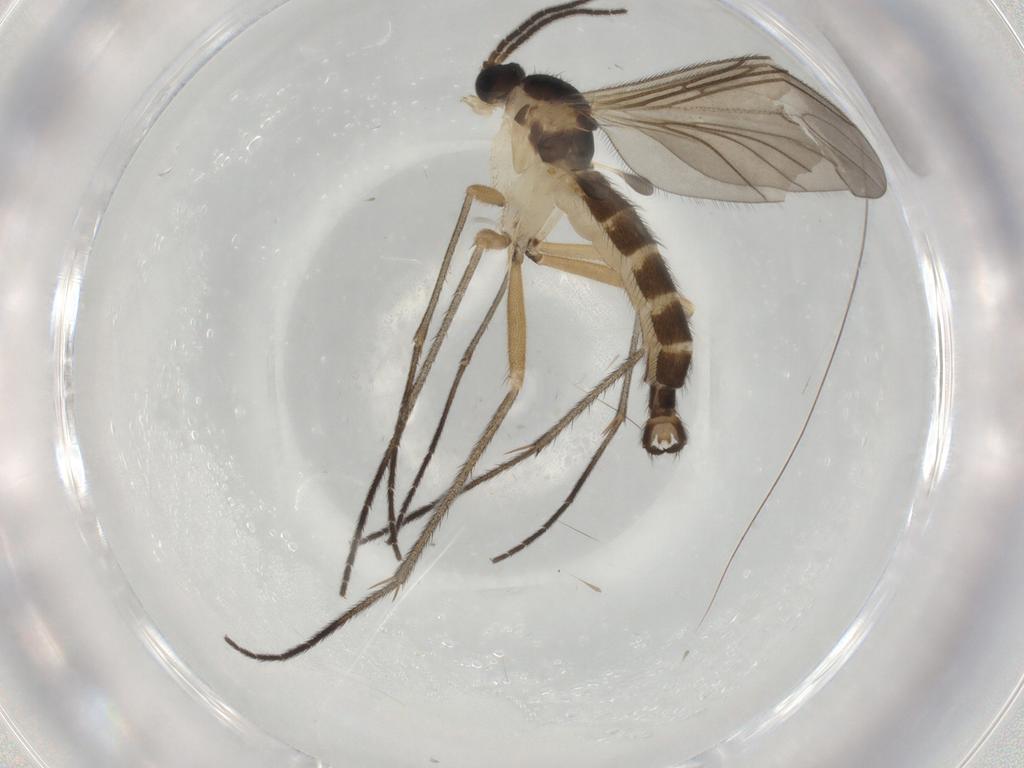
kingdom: Animalia
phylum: Arthropoda
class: Insecta
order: Diptera
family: Sciaridae
